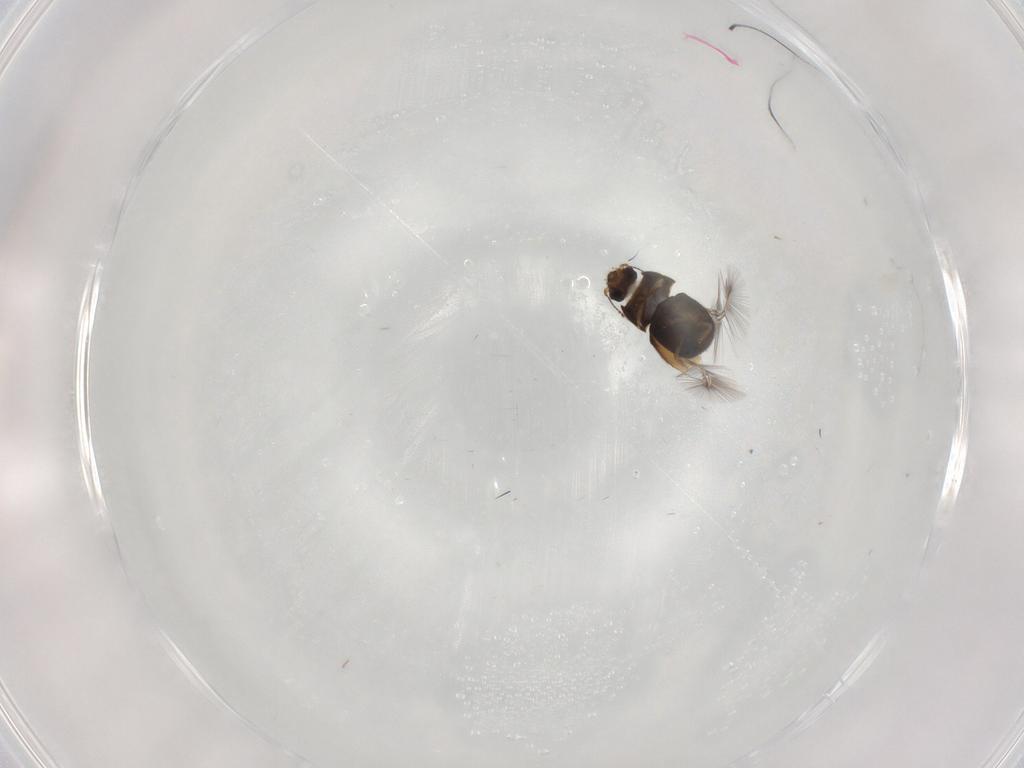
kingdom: Animalia
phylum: Arthropoda
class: Insecta
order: Coleoptera
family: Ptiliidae
